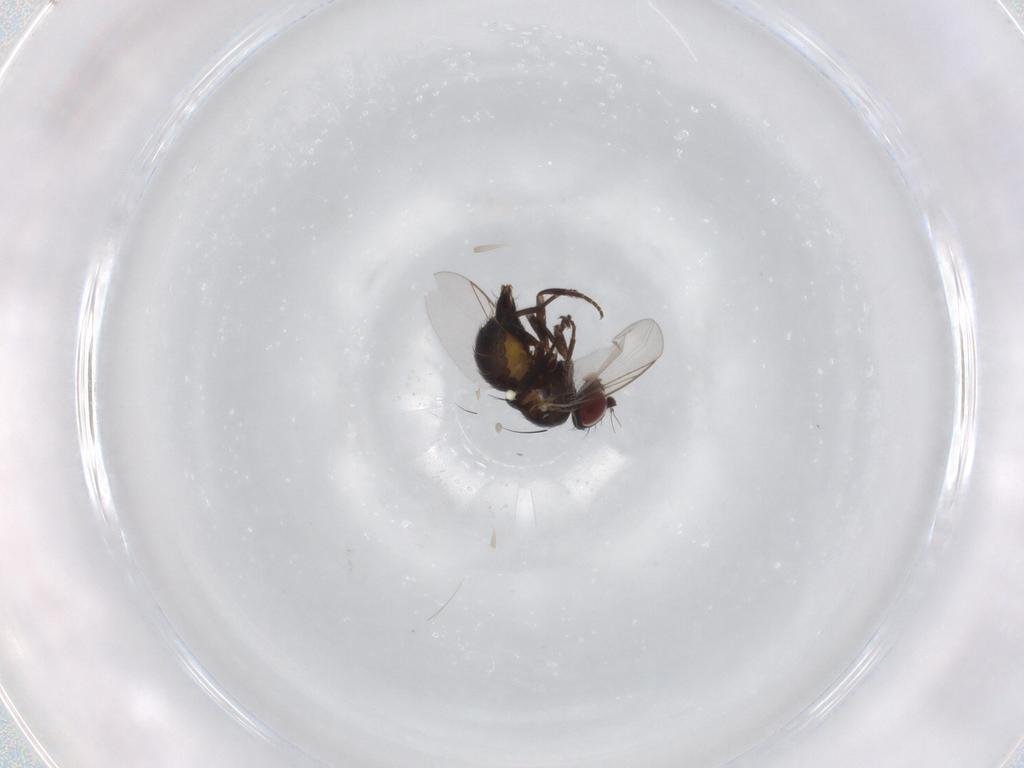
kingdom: Animalia
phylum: Arthropoda
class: Insecta
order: Diptera
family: Agromyzidae
